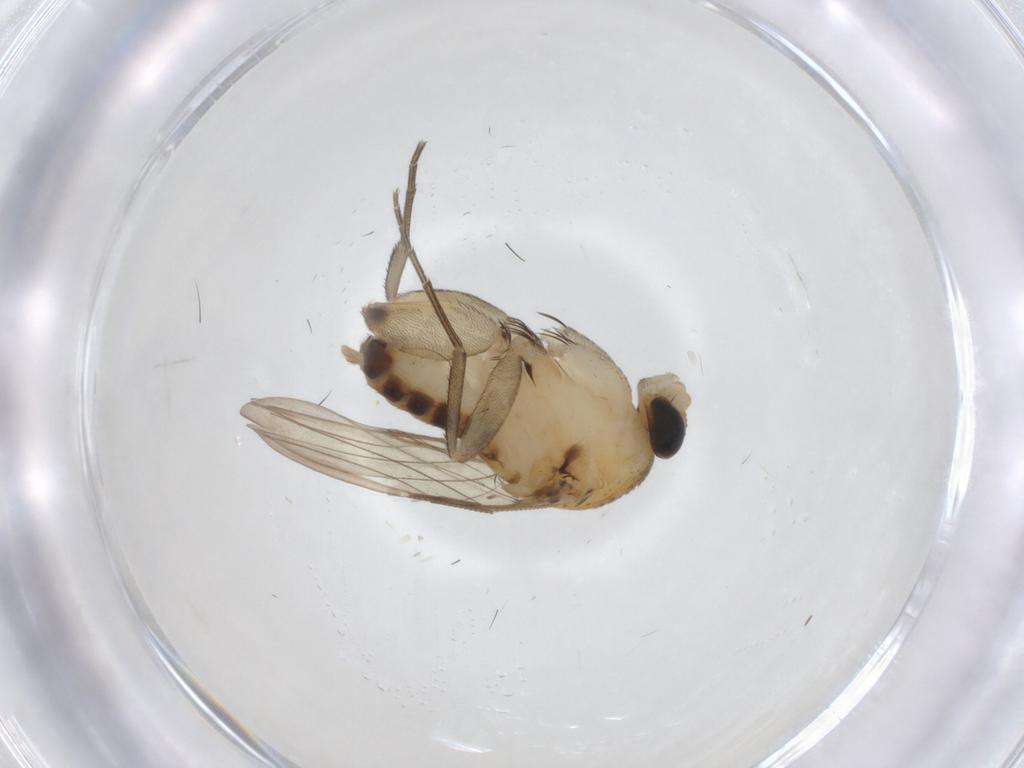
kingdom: Animalia
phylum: Arthropoda
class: Insecta
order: Diptera
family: Phoridae
